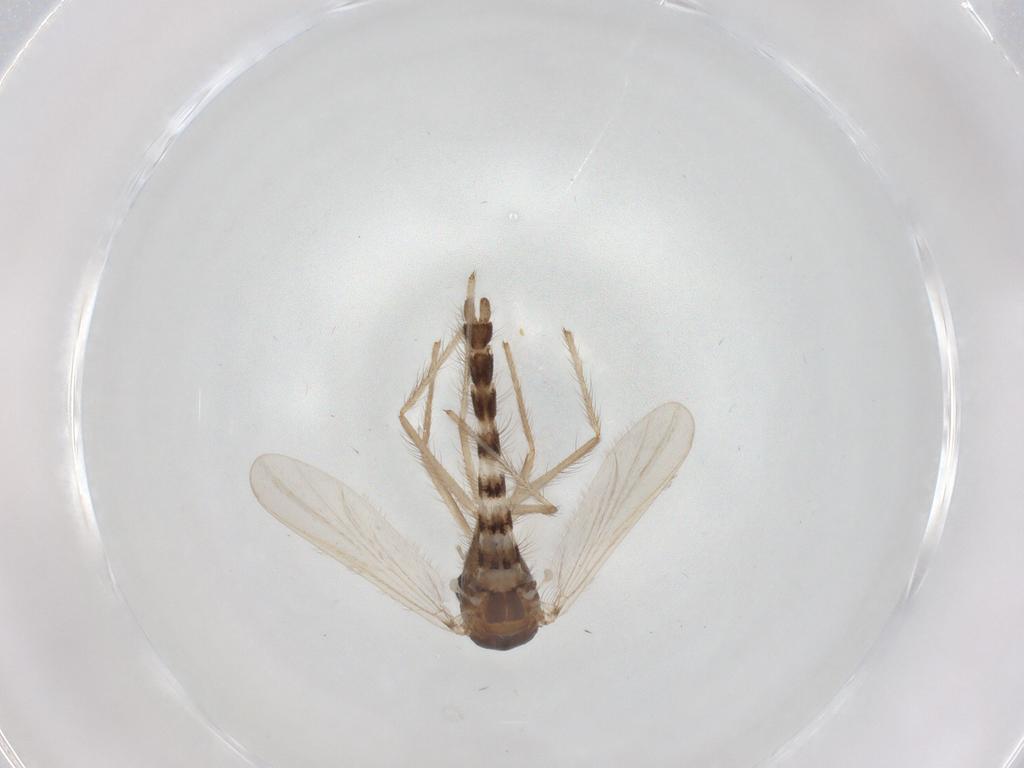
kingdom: Animalia
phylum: Arthropoda
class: Insecta
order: Diptera
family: Chironomidae
